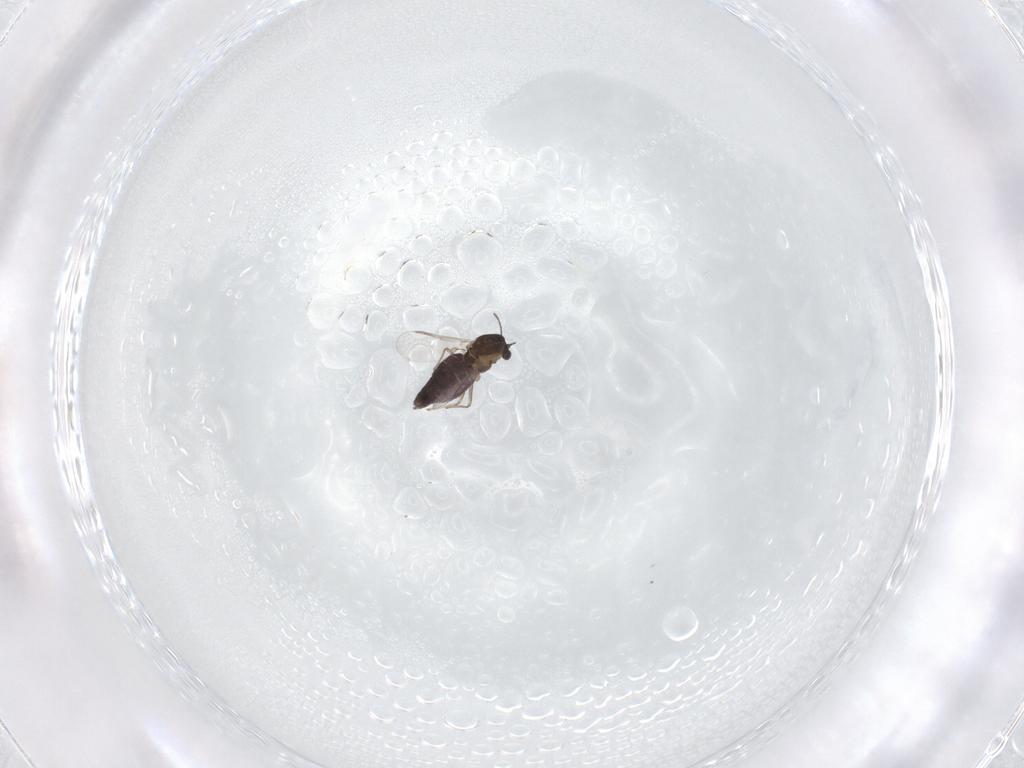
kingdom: Animalia
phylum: Arthropoda
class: Insecta
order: Diptera
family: Chironomidae
